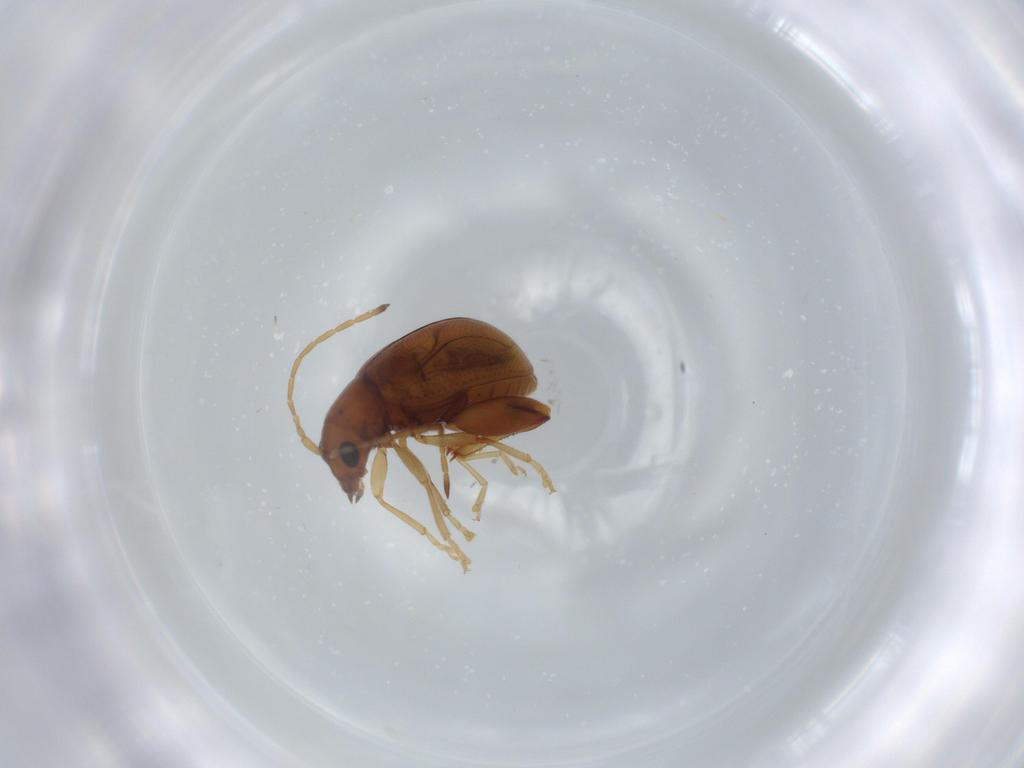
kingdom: Animalia
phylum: Arthropoda
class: Insecta
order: Coleoptera
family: Chrysomelidae
